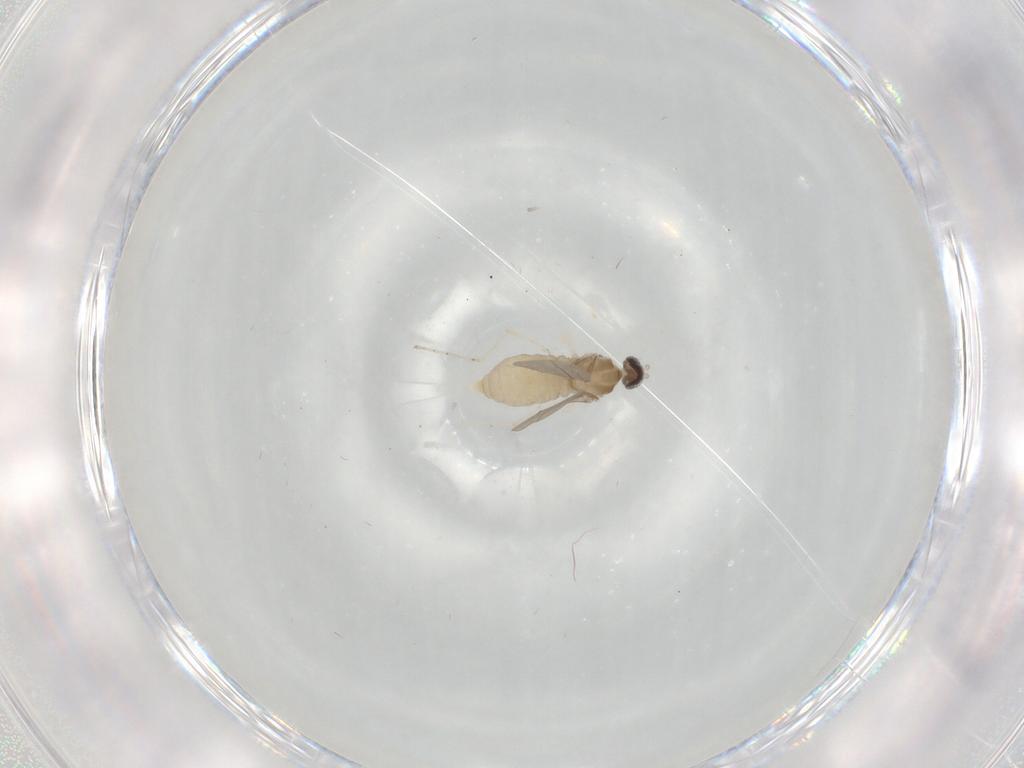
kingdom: Animalia
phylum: Arthropoda
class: Insecta
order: Diptera
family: Cecidomyiidae
